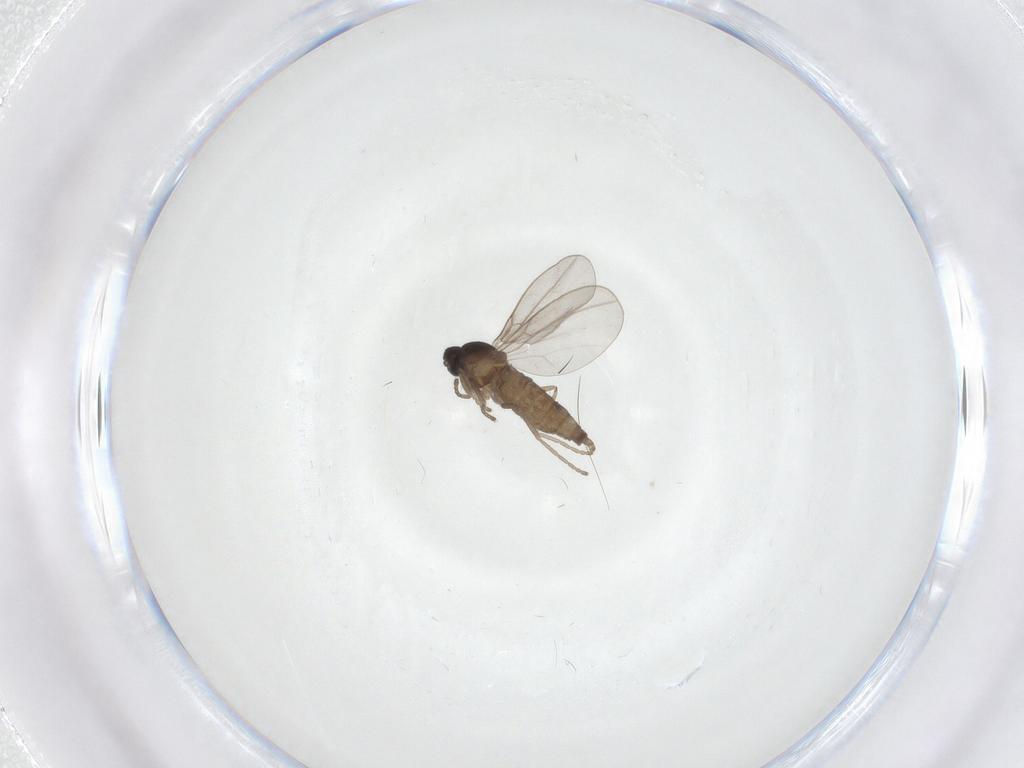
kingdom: Animalia
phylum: Arthropoda
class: Insecta
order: Diptera
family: Cecidomyiidae
